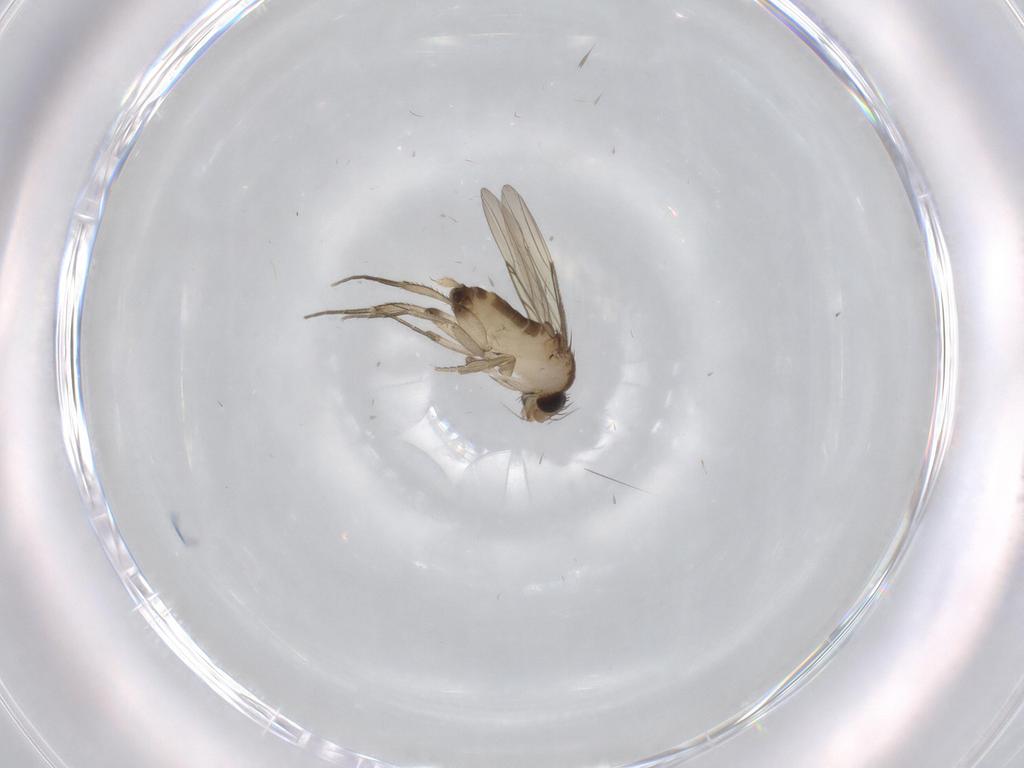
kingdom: Animalia
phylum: Arthropoda
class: Insecta
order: Diptera
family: Phoridae
